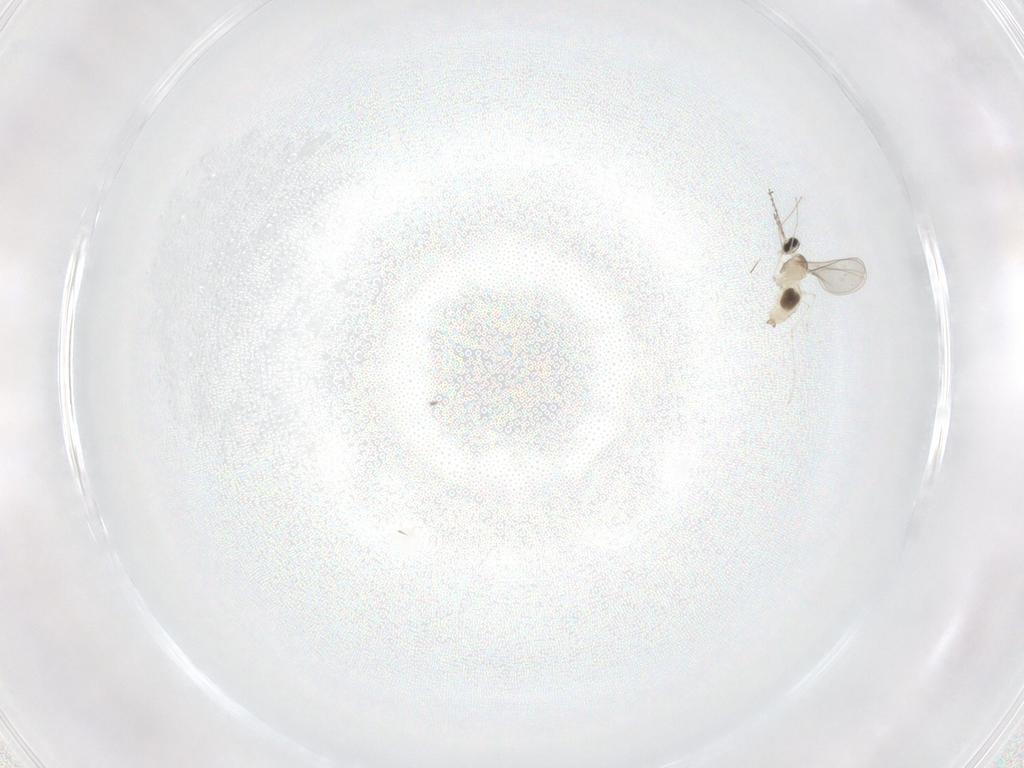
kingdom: Animalia
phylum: Arthropoda
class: Insecta
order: Diptera
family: Cecidomyiidae
